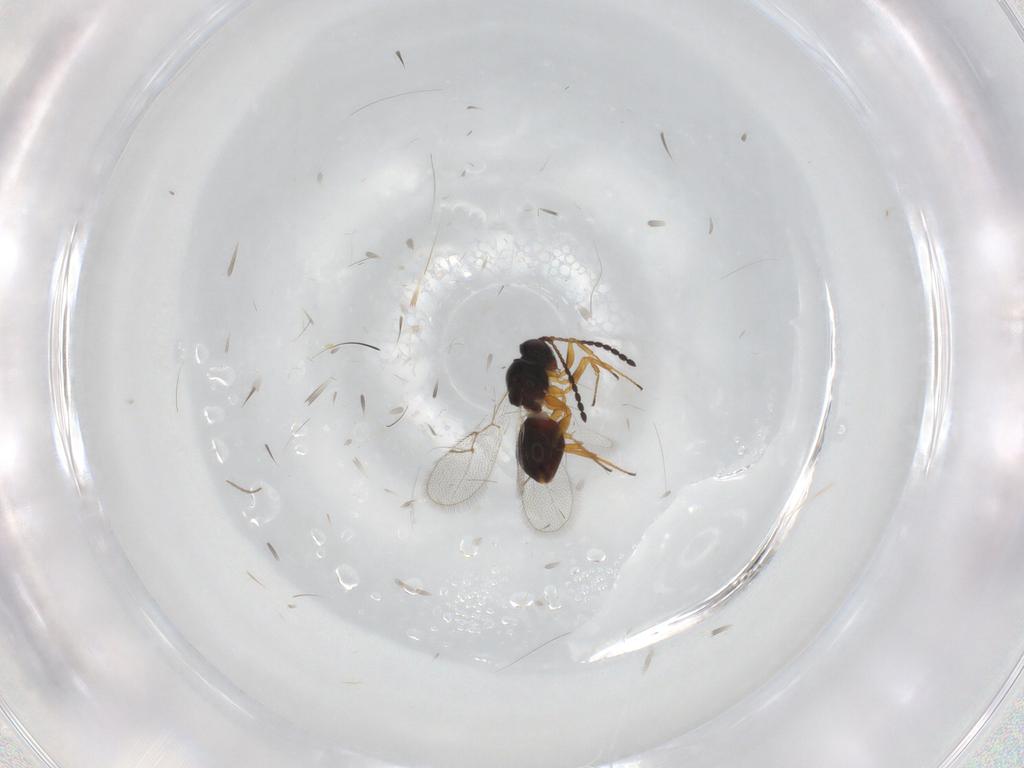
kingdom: Animalia
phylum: Arthropoda
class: Insecta
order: Hymenoptera
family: Figitidae
